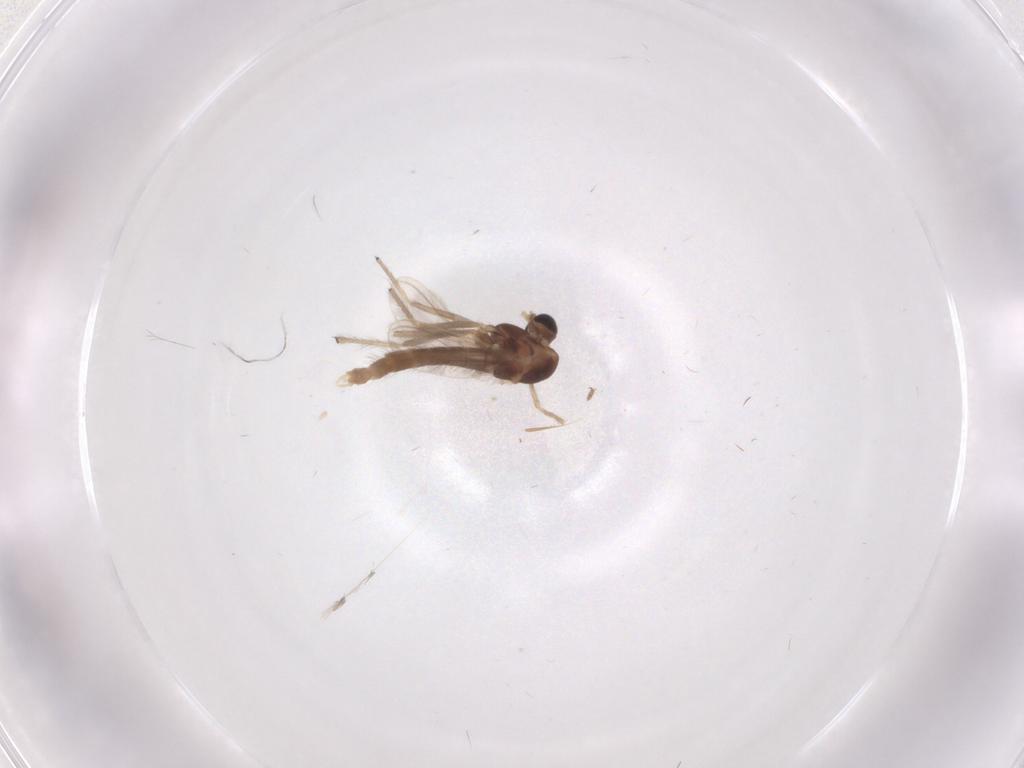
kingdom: Animalia
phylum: Arthropoda
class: Insecta
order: Diptera
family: Chironomidae
